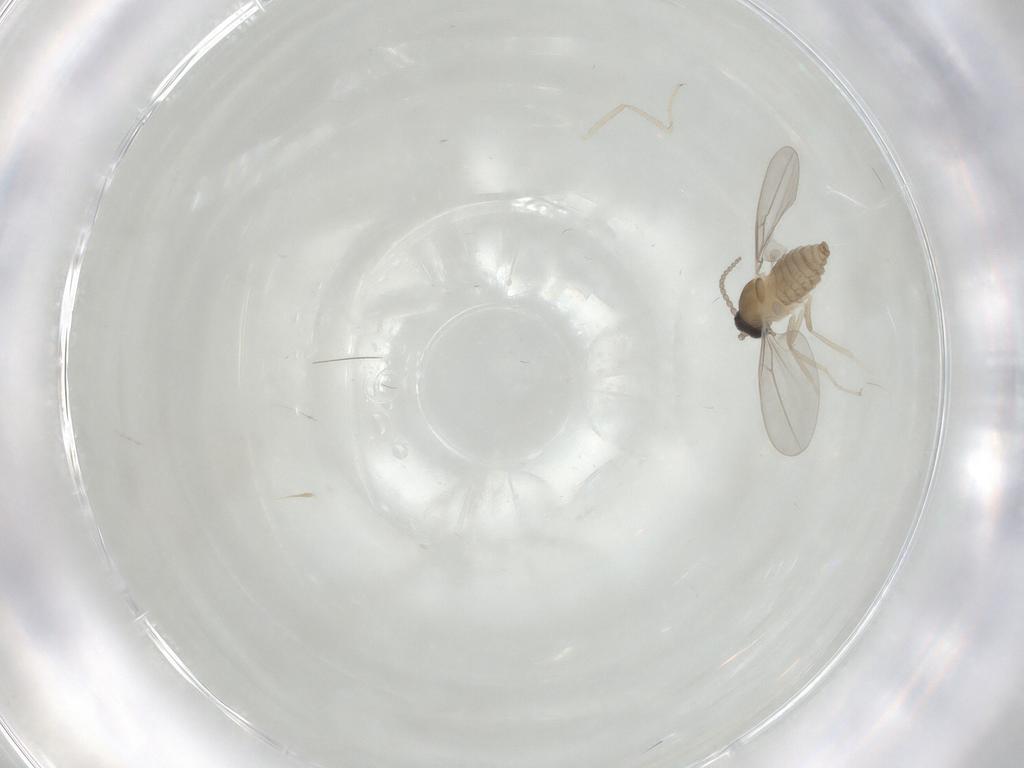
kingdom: Animalia
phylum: Arthropoda
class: Insecta
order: Diptera
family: Cecidomyiidae
